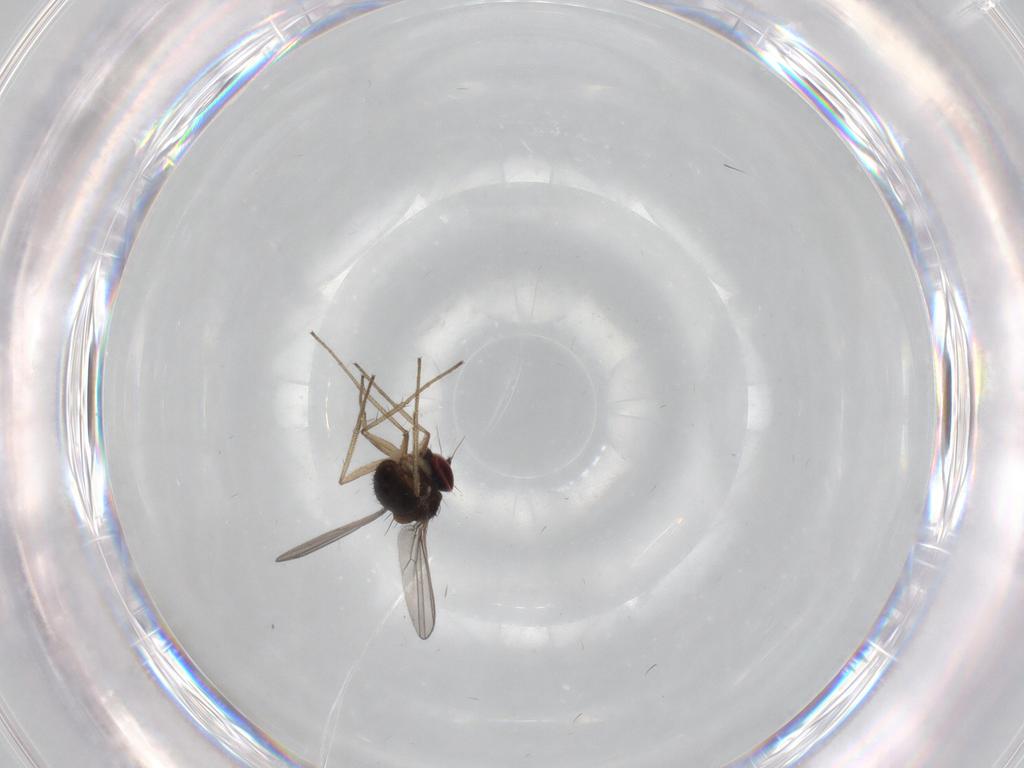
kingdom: Animalia
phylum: Arthropoda
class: Insecta
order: Diptera
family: Dolichopodidae
